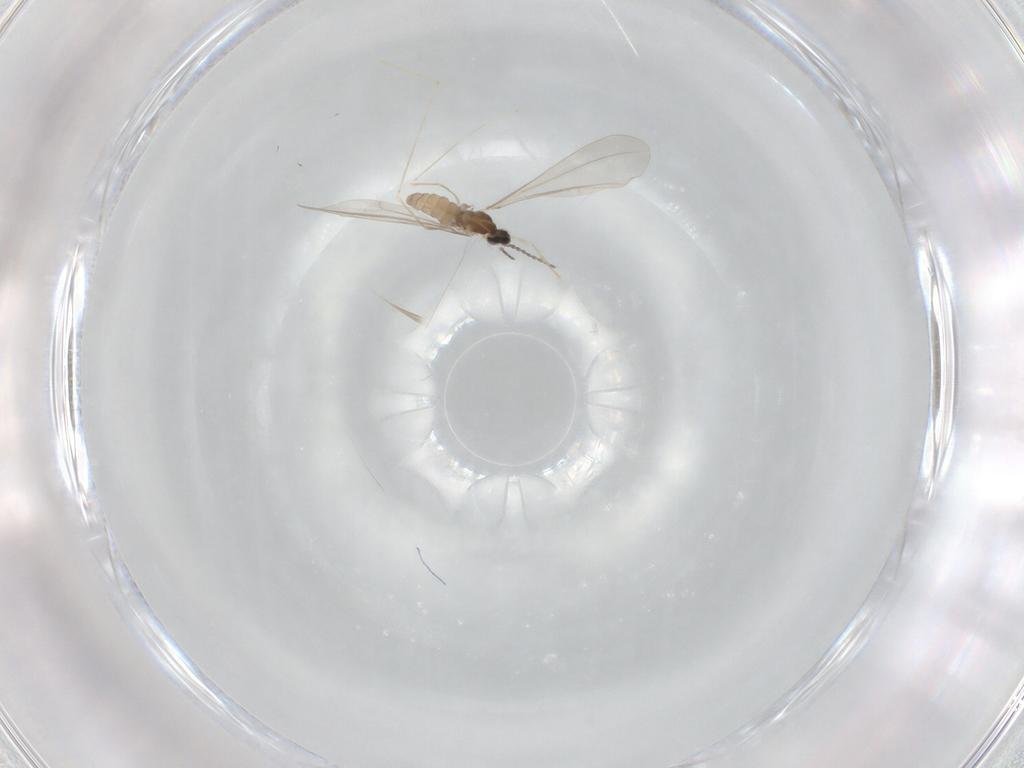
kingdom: Animalia
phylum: Arthropoda
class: Insecta
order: Diptera
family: Cecidomyiidae
